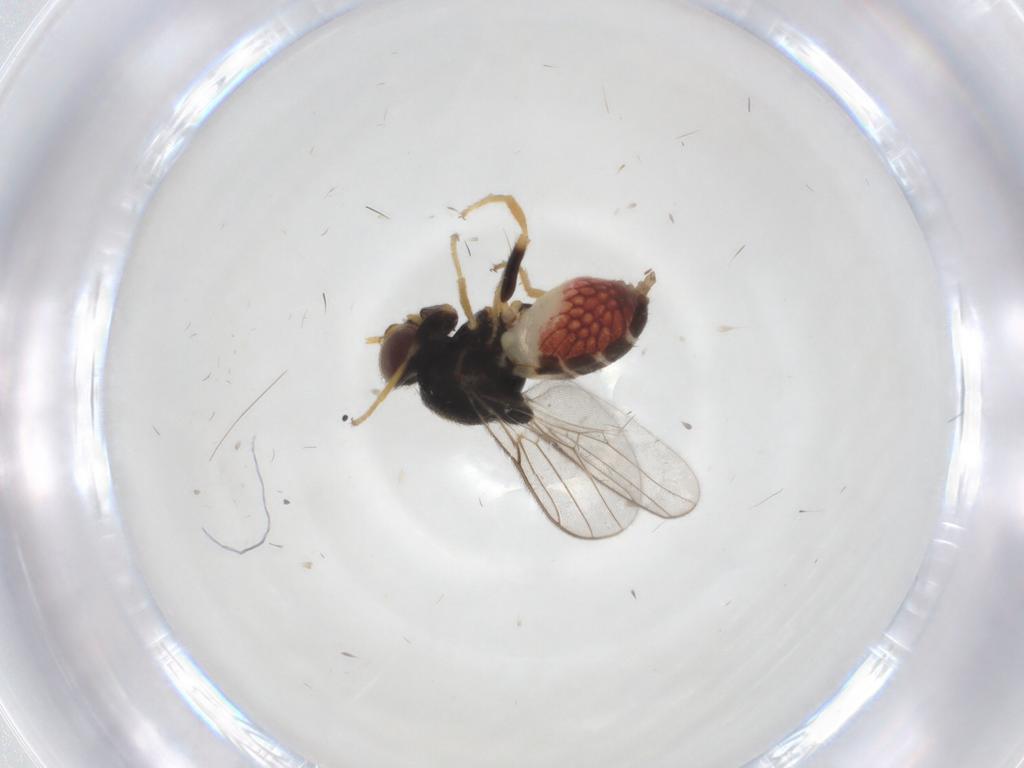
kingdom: Animalia
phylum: Arthropoda
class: Insecta
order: Diptera
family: Chloropidae
